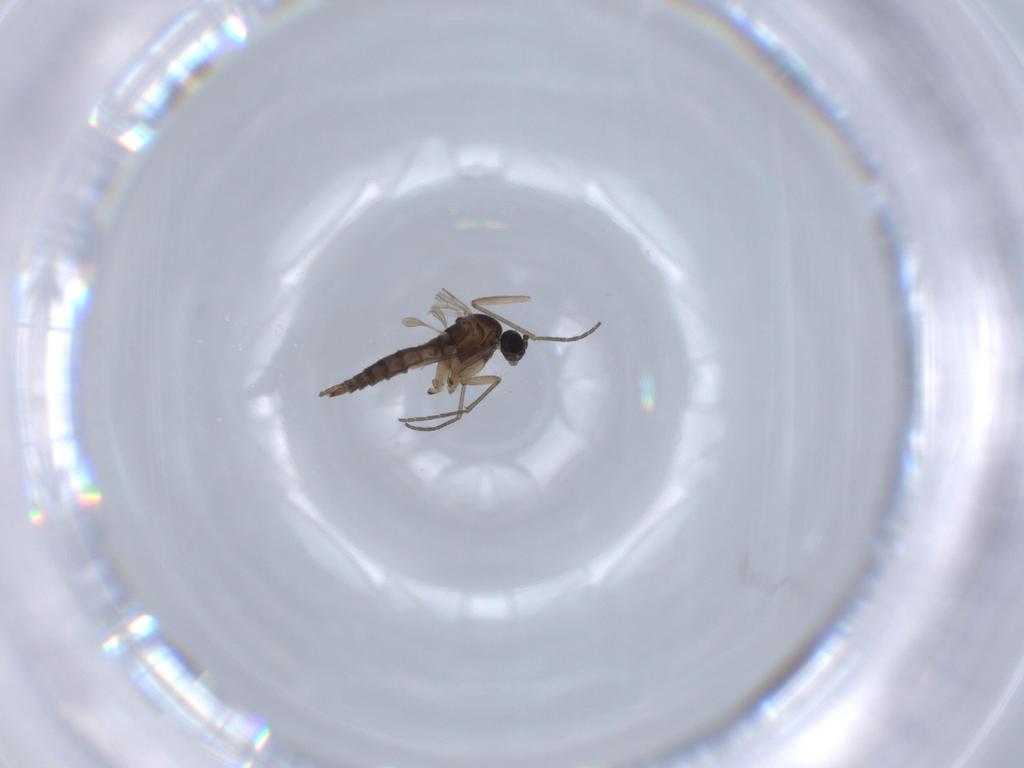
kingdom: Animalia
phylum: Arthropoda
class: Insecta
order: Diptera
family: Sciaridae
